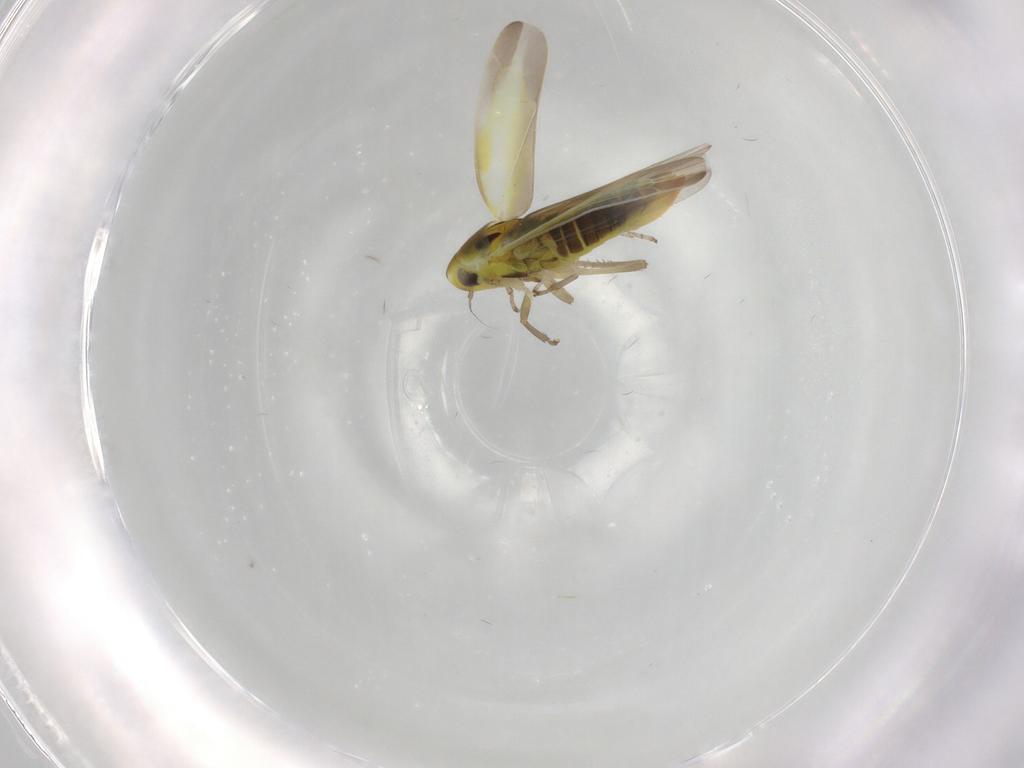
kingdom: Animalia
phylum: Arthropoda
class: Insecta
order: Hemiptera
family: Cicadellidae
